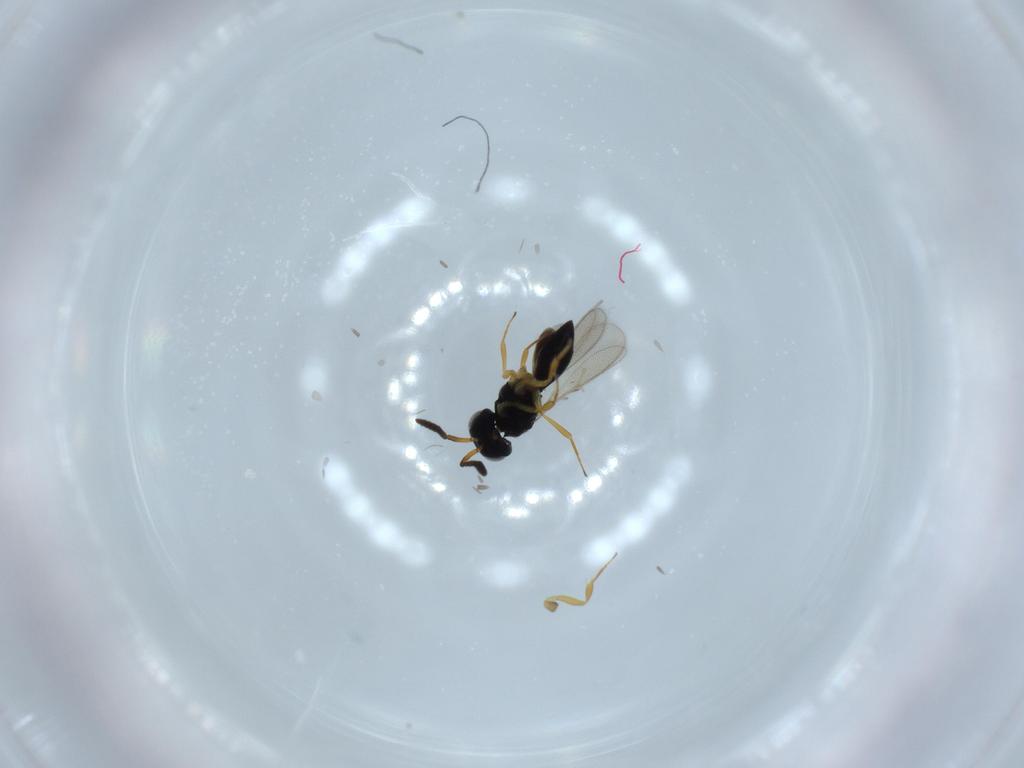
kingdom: Animalia
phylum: Arthropoda
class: Insecta
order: Hymenoptera
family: Scelionidae
